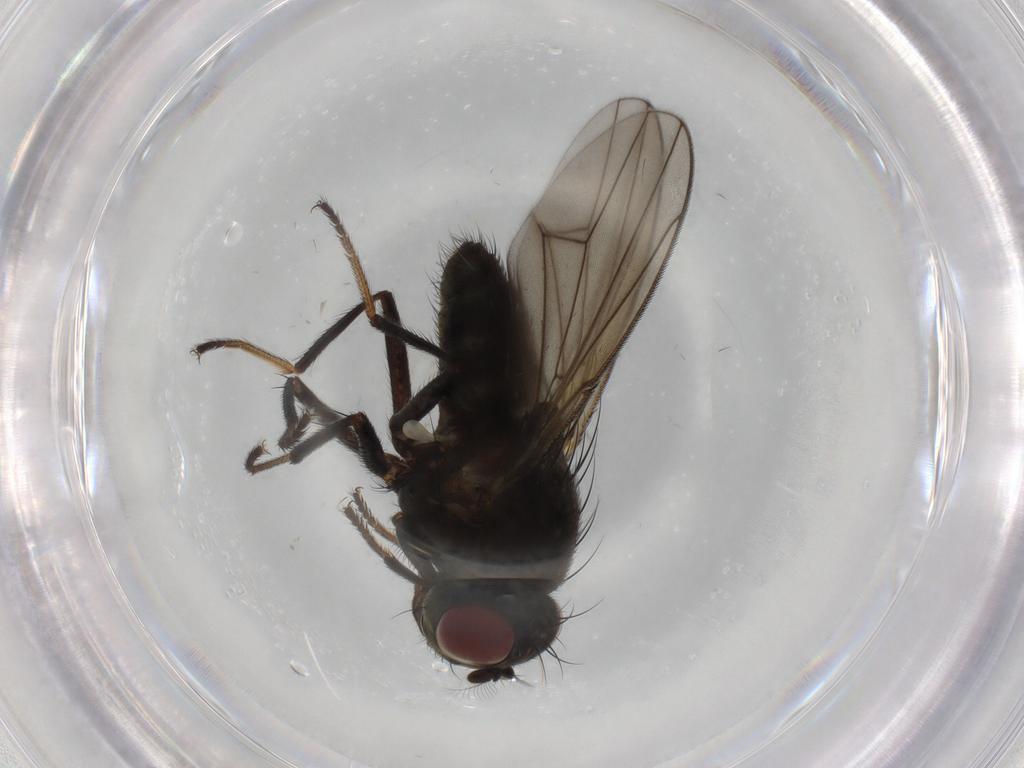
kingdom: Animalia
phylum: Arthropoda
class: Insecta
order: Diptera
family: Ephydridae
